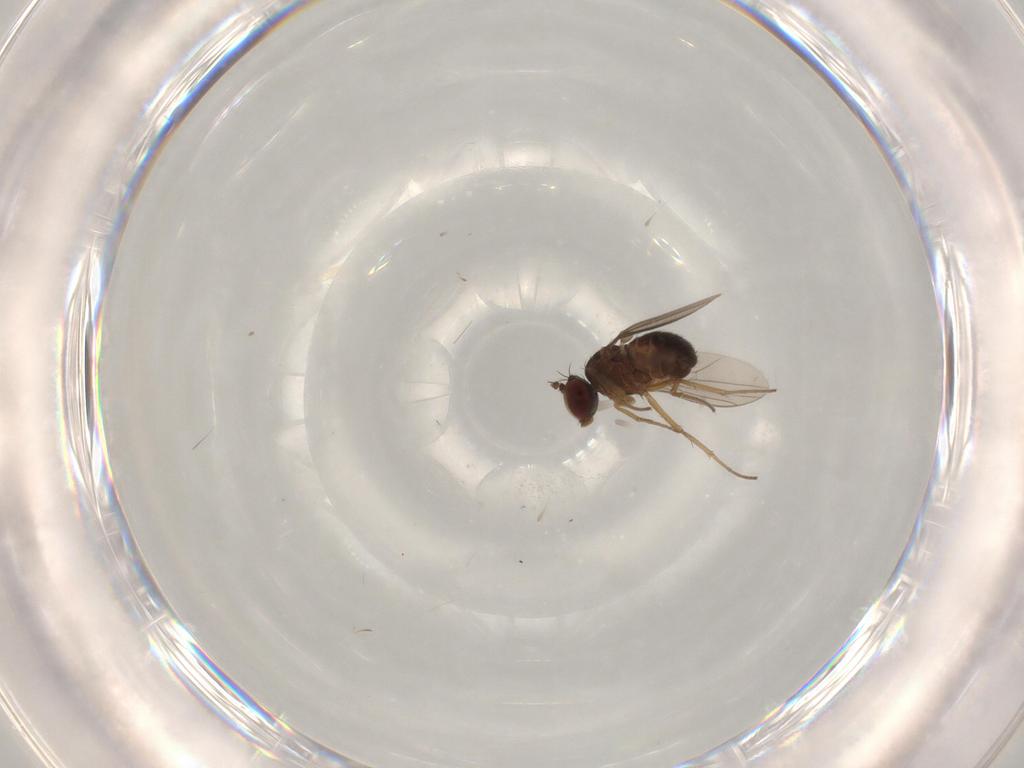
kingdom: Animalia
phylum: Arthropoda
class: Insecta
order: Diptera
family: Dolichopodidae
